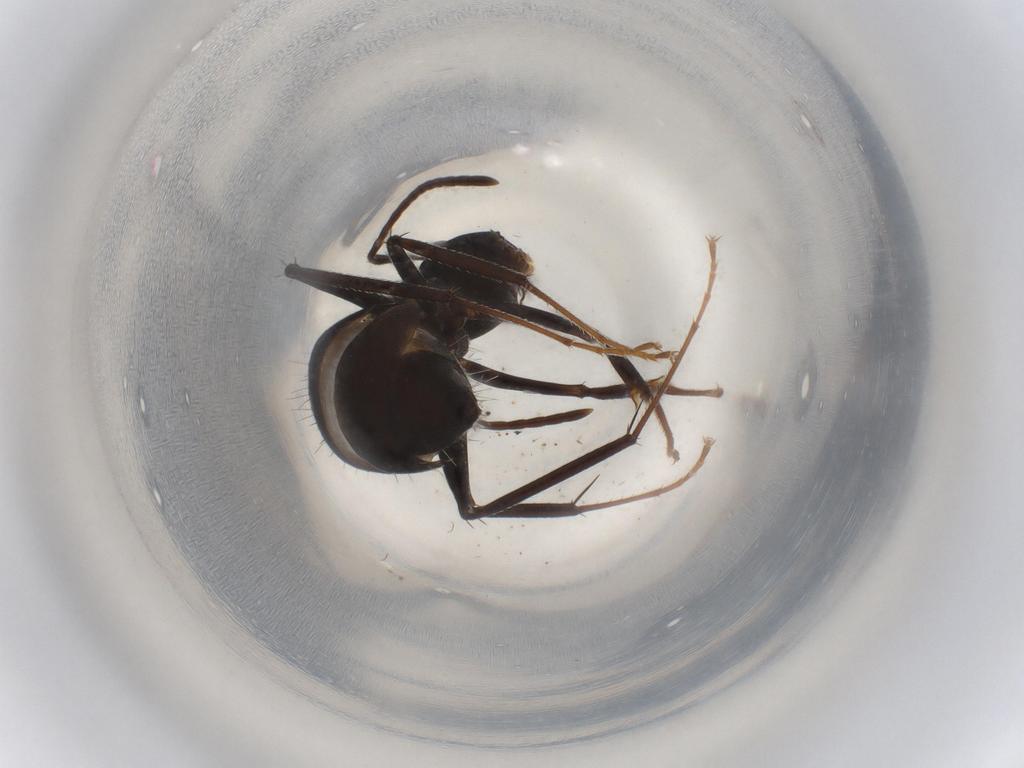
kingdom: Animalia
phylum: Arthropoda
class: Insecta
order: Hymenoptera
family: Formicidae
